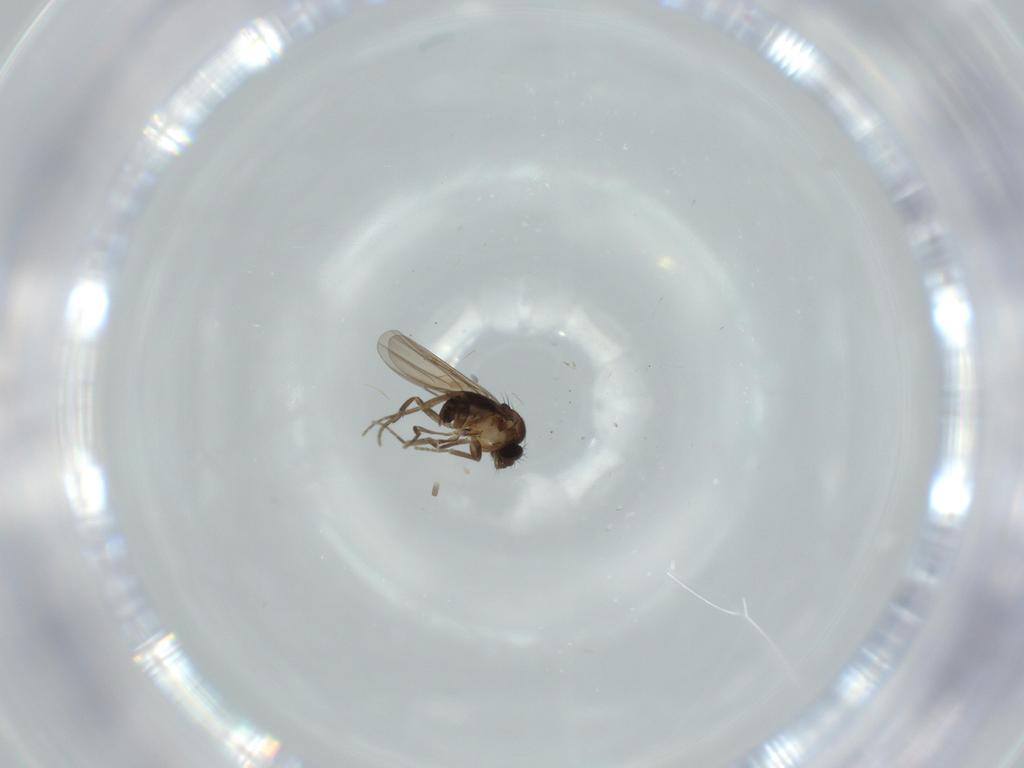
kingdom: Animalia
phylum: Arthropoda
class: Insecta
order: Diptera
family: Phoridae
